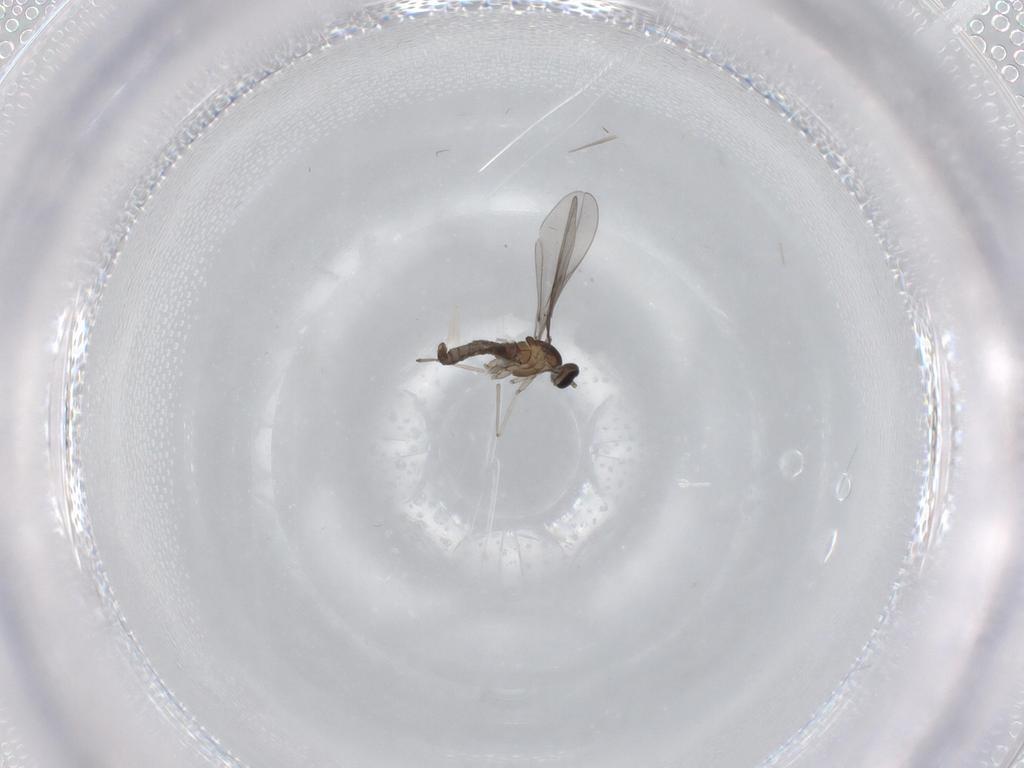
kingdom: Animalia
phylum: Arthropoda
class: Insecta
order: Diptera
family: Cecidomyiidae
